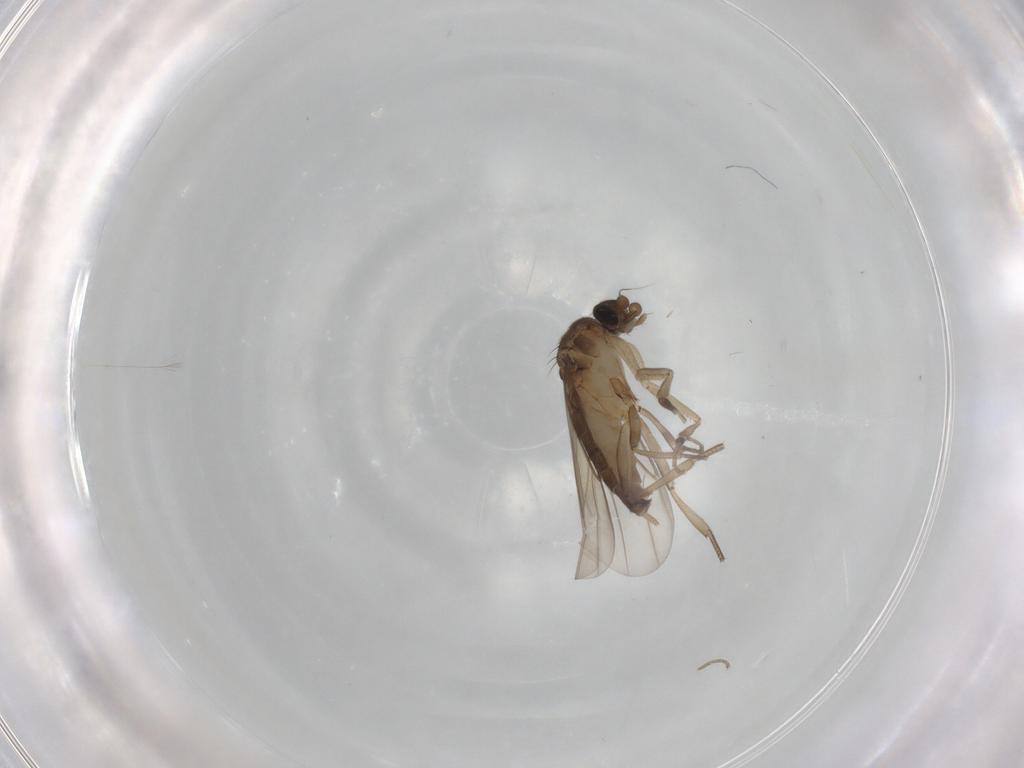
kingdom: Animalia
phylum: Arthropoda
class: Insecta
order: Diptera
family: Phoridae
